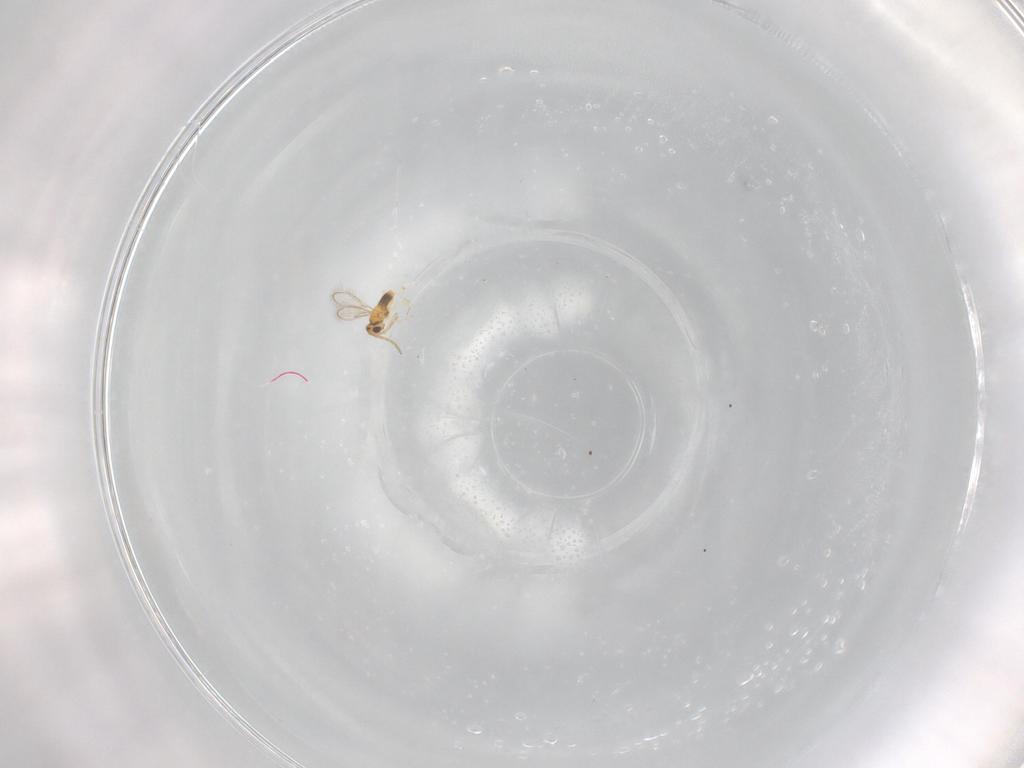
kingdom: Animalia
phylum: Arthropoda
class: Insecta
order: Hymenoptera
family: Aphelinidae
